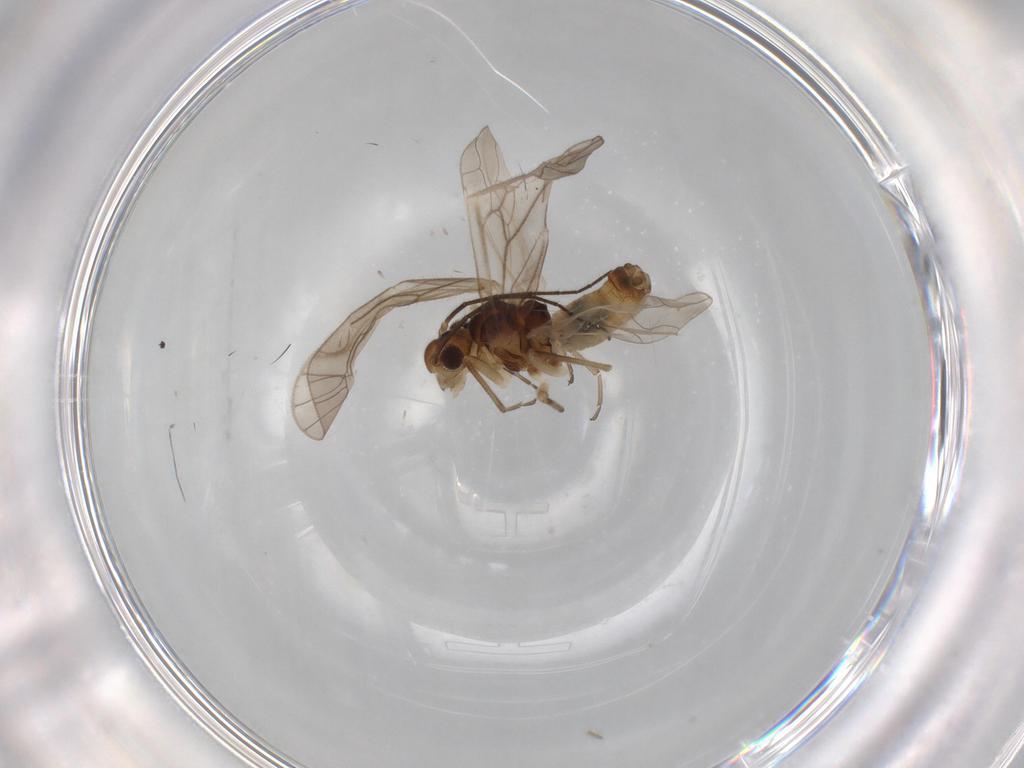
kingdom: Animalia
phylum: Arthropoda
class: Insecta
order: Psocodea
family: Philotarsidae
